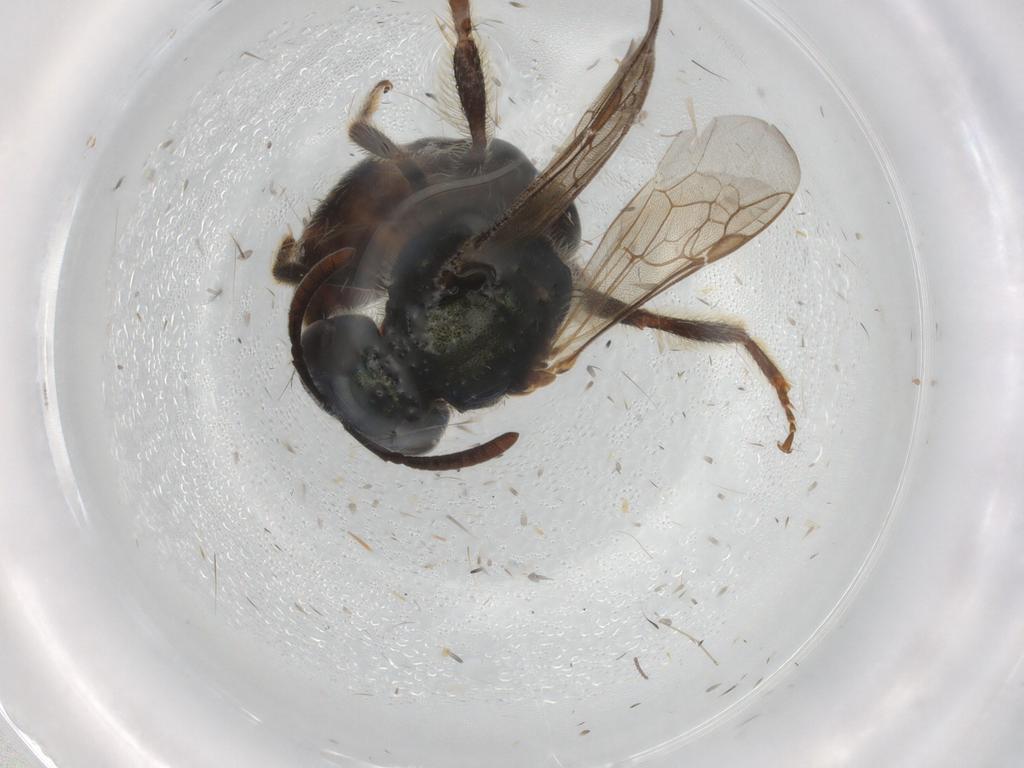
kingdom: Animalia
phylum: Arthropoda
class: Insecta
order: Hymenoptera
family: Halictidae
